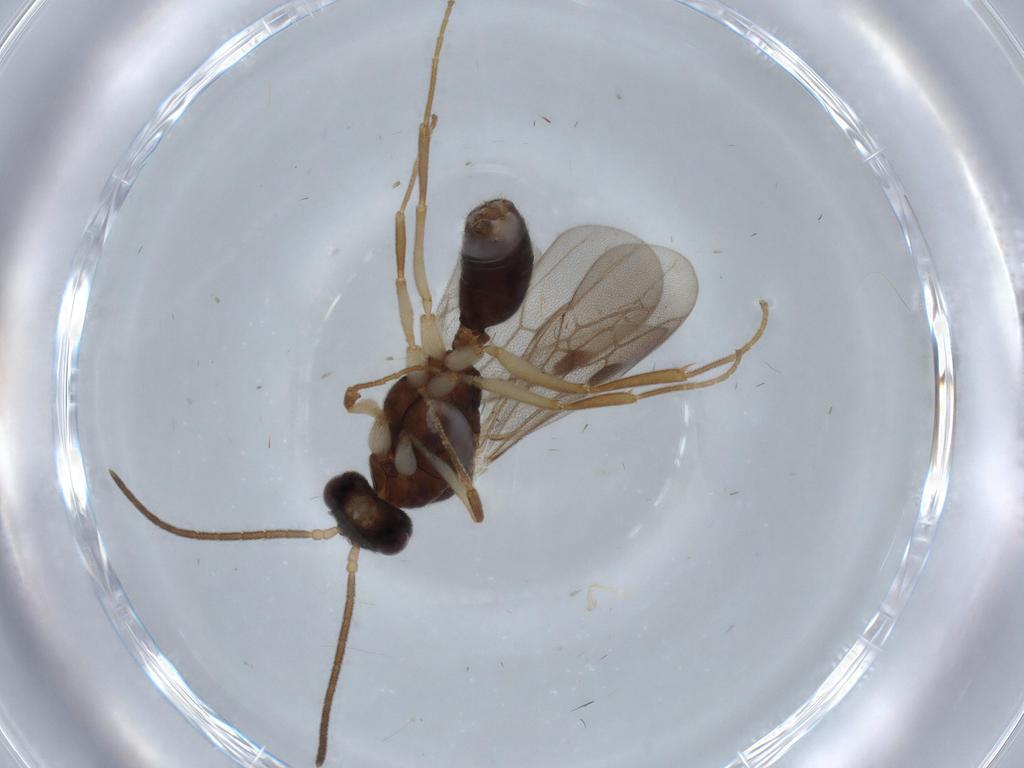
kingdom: Animalia
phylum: Arthropoda
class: Insecta
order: Hymenoptera
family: Formicidae
